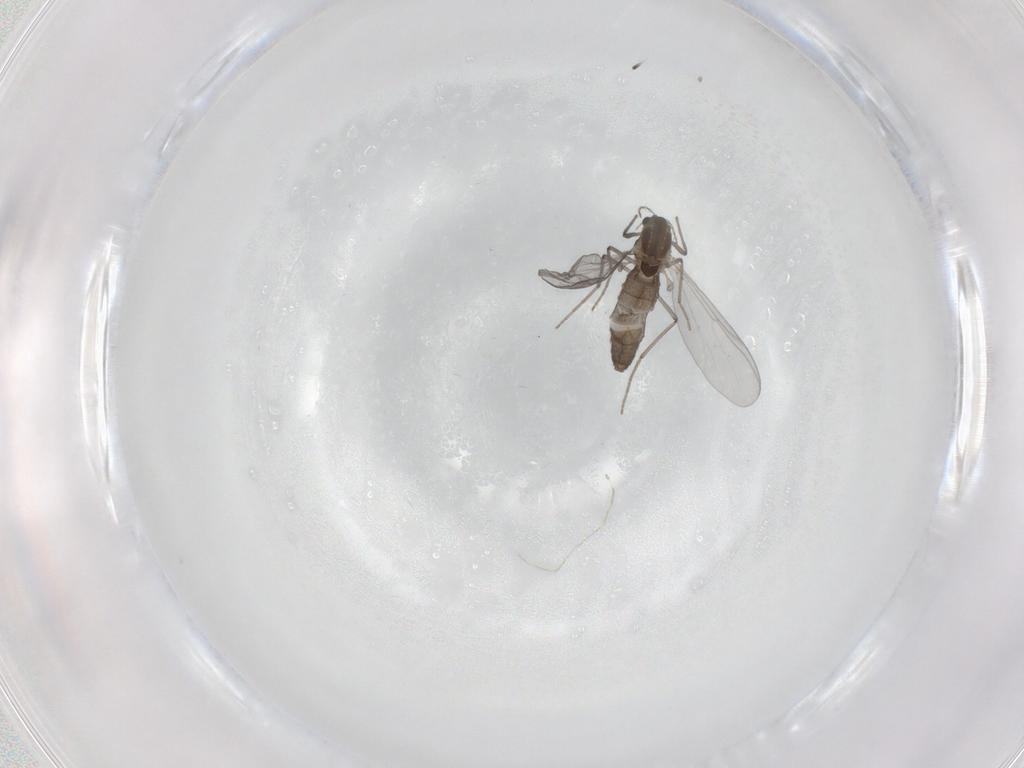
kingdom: Animalia
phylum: Arthropoda
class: Insecta
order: Diptera
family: Chironomidae
